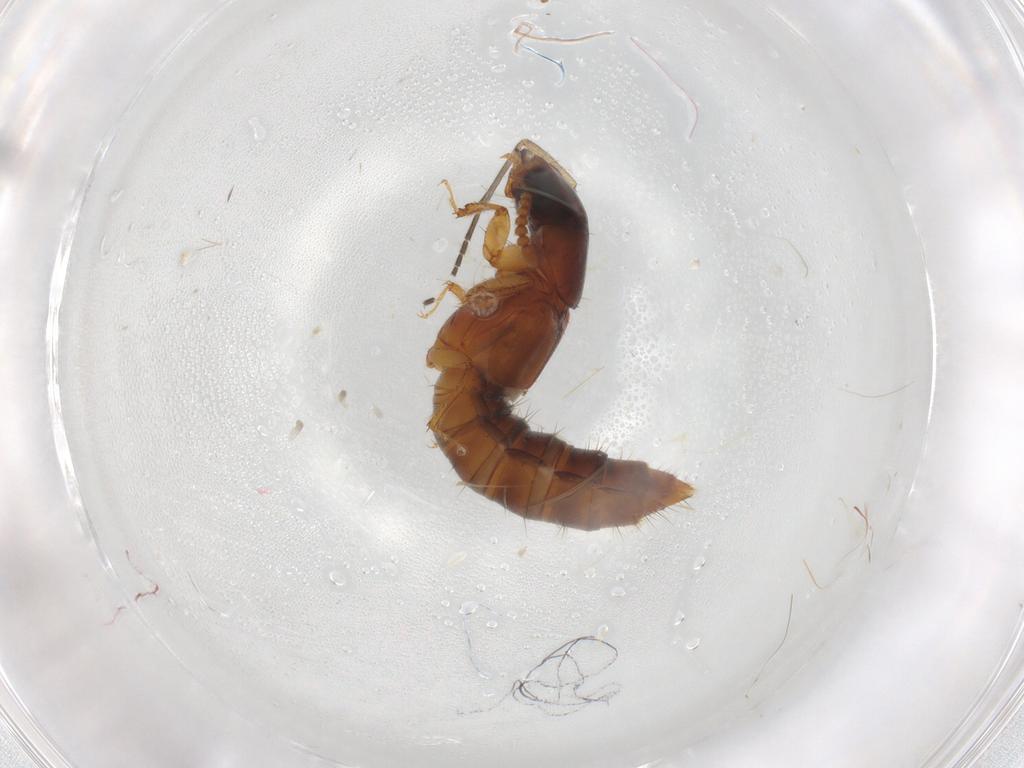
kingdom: Animalia
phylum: Arthropoda
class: Insecta
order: Coleoptera
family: Staphylinidae
